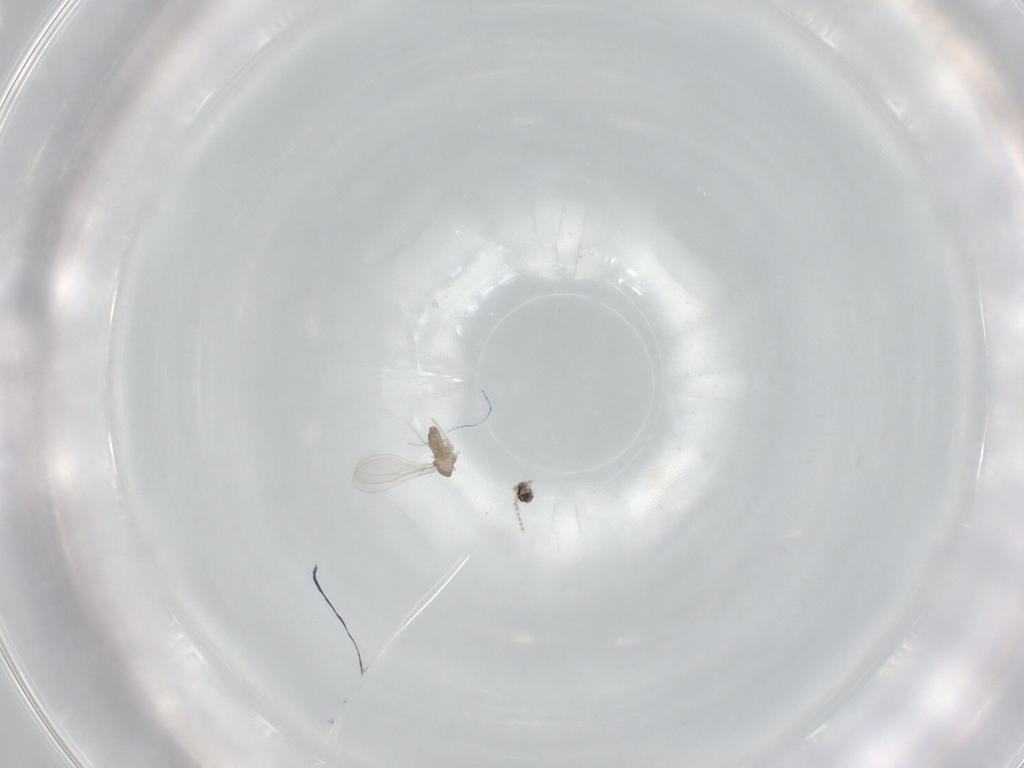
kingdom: Animalia
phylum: Arthropoda
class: Insecta
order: Diptera
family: Cecidomyiidae
